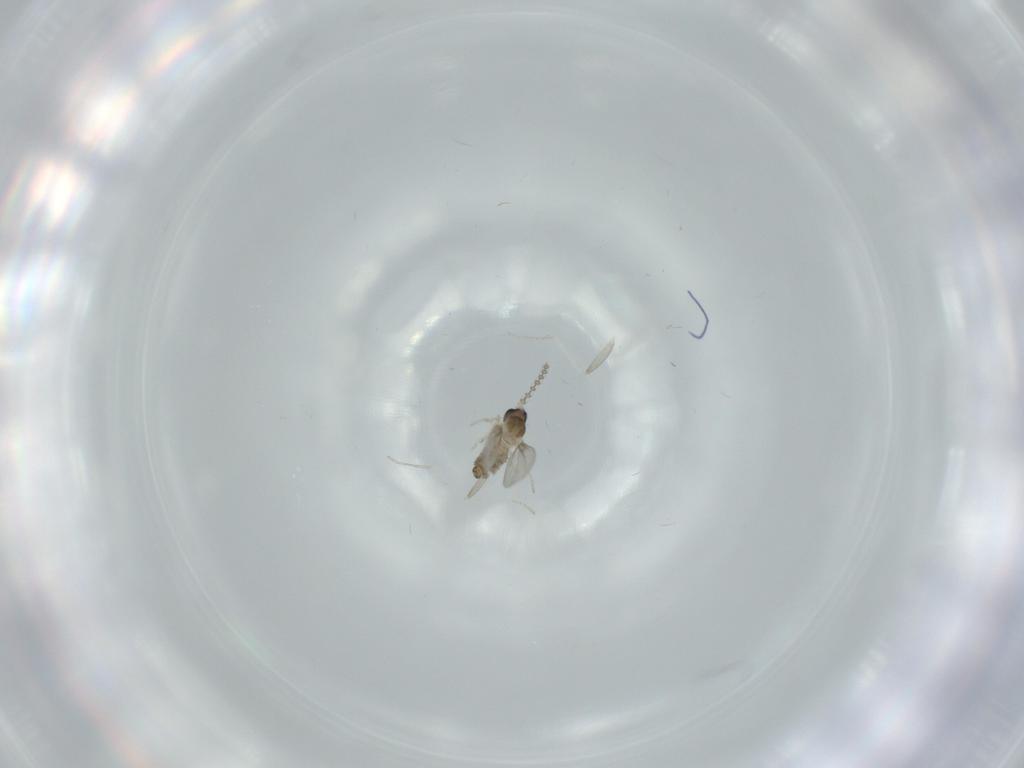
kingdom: Animalia
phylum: Arthropoda
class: Insecta
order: Diptera
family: Cecidomyiidae
